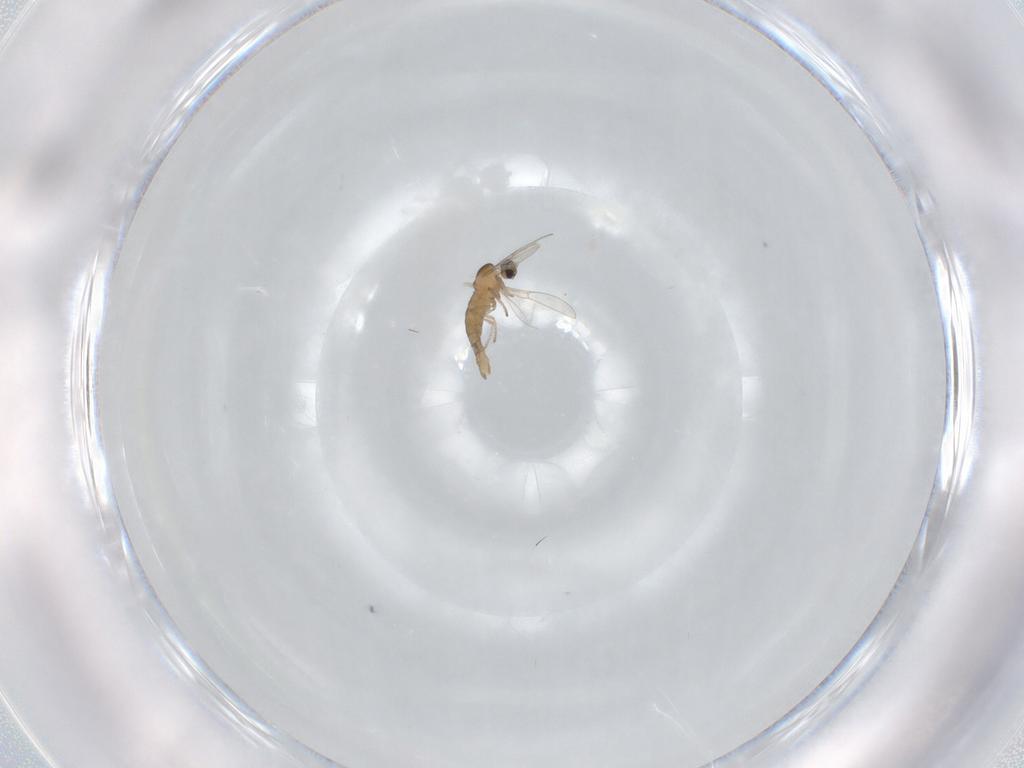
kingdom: Animalia
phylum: Arthropoda
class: Insecta
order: Diptera
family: Cecidomyiidae
